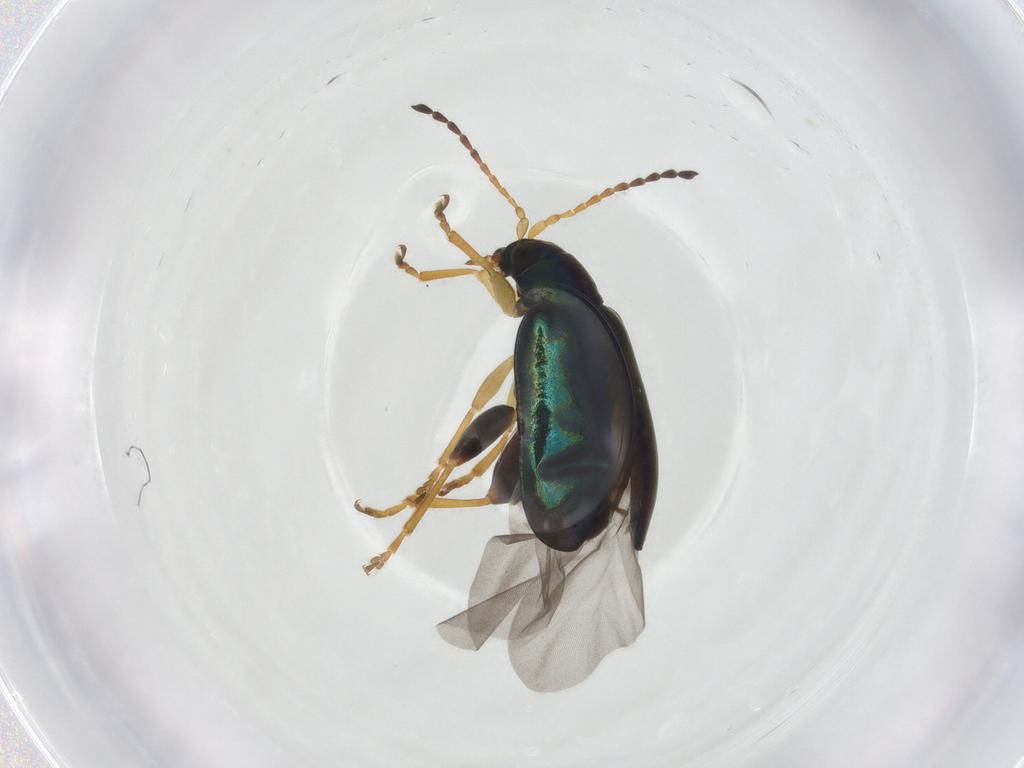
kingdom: Animalia
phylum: Arthropoda
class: Insecta
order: Coleoptera
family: Chrysomelidae
